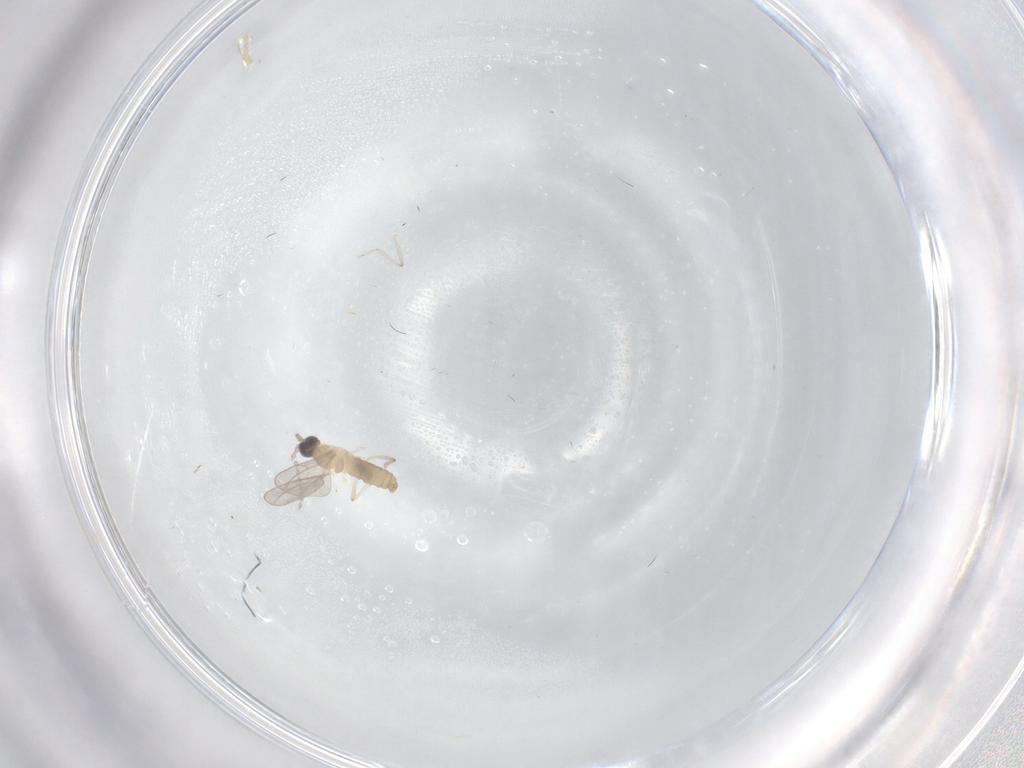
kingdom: Animalia
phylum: Arthropoda
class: Insecta
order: Diptera
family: Cecidomyiidae
